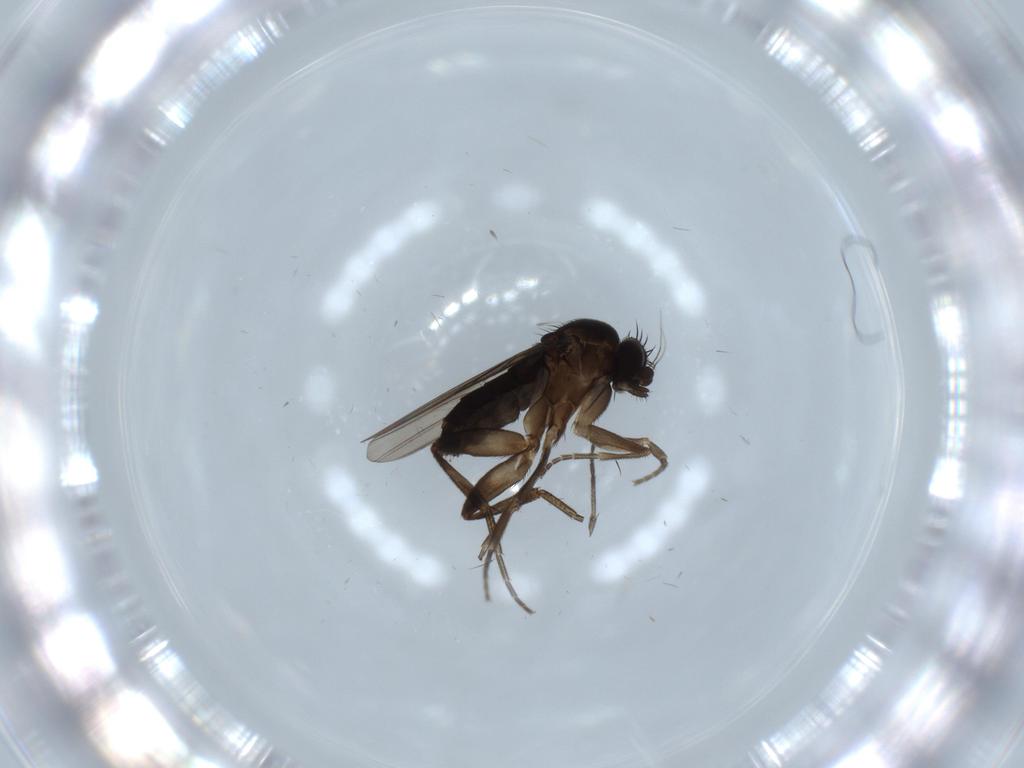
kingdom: Animalia
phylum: Arthropoda
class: Insecta
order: Diptera
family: Phoridae
